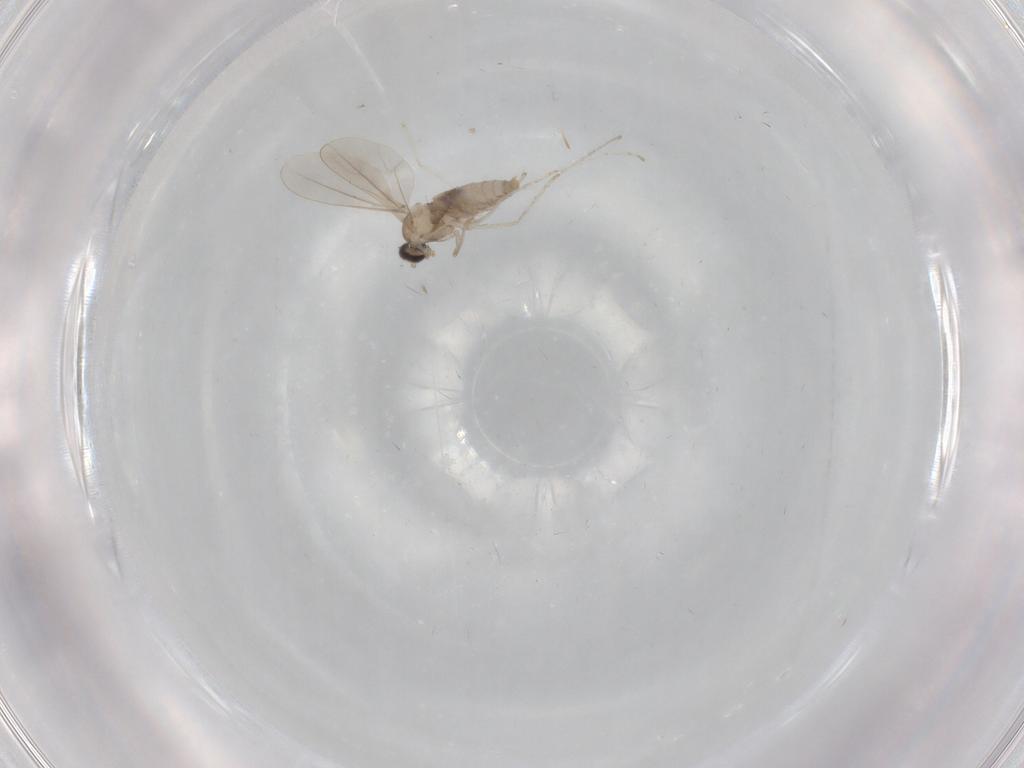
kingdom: Animalia
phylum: Arthropoda
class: Insecta
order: Diptera
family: Cecidomyiidae
